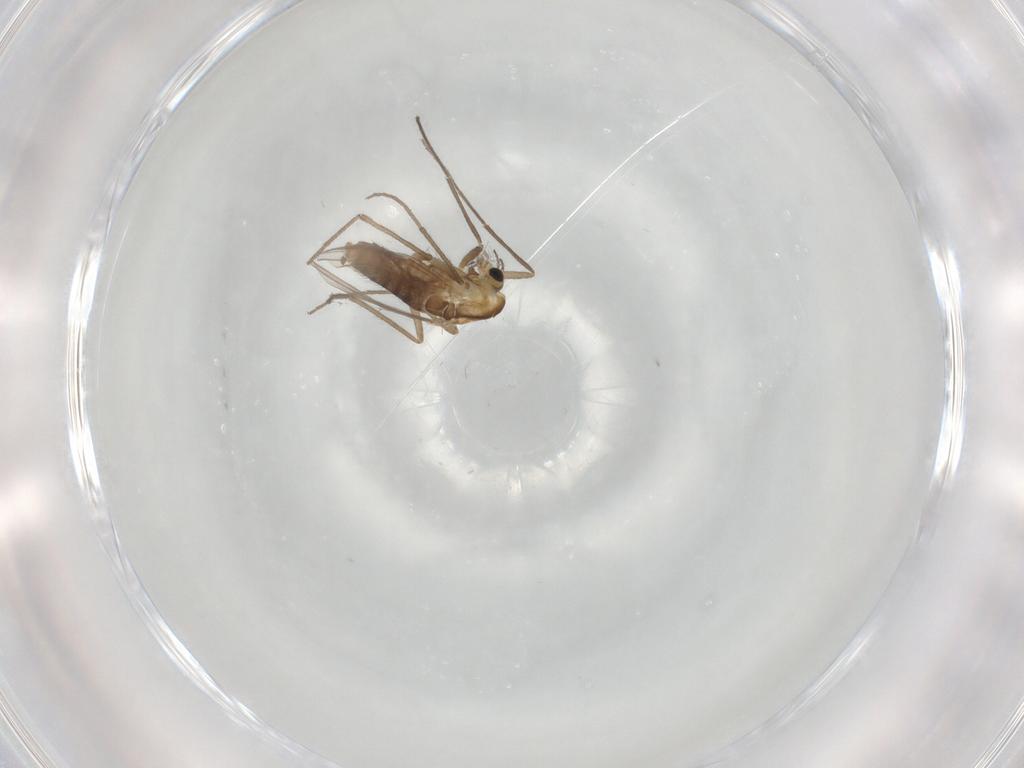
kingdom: Animalia
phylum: Arthropoda
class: Insecta
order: Diptera
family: Chironomidae
